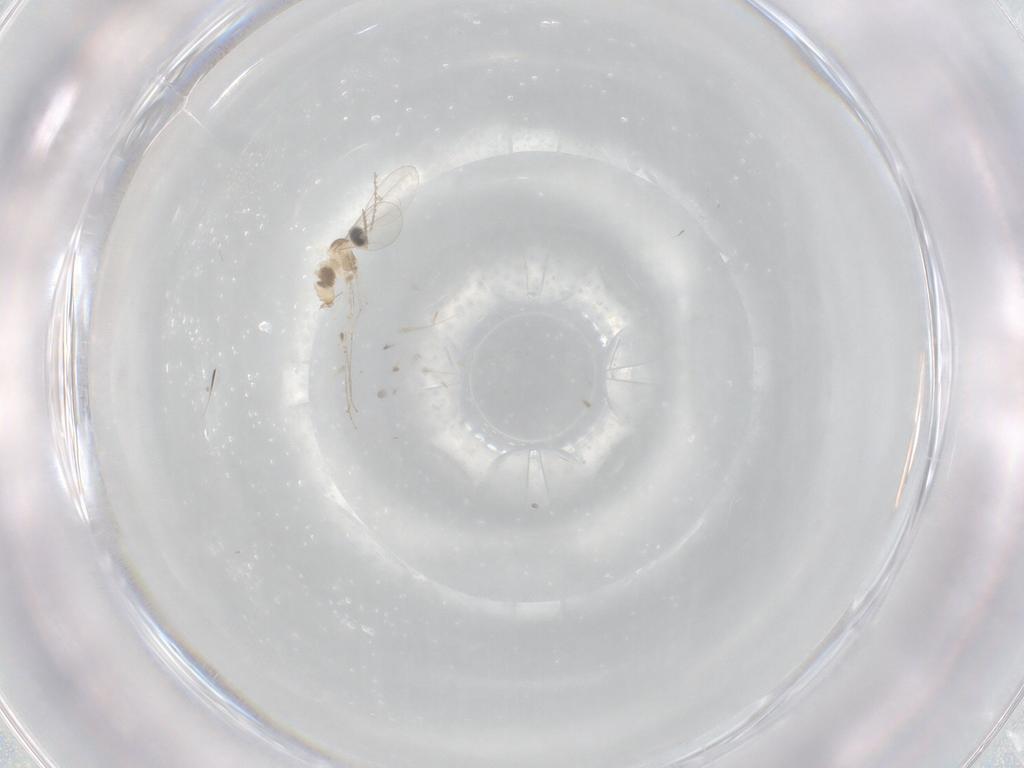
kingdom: Animalia
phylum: Arthropoda
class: Insecta
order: Diptera
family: Cecidomyiidae
